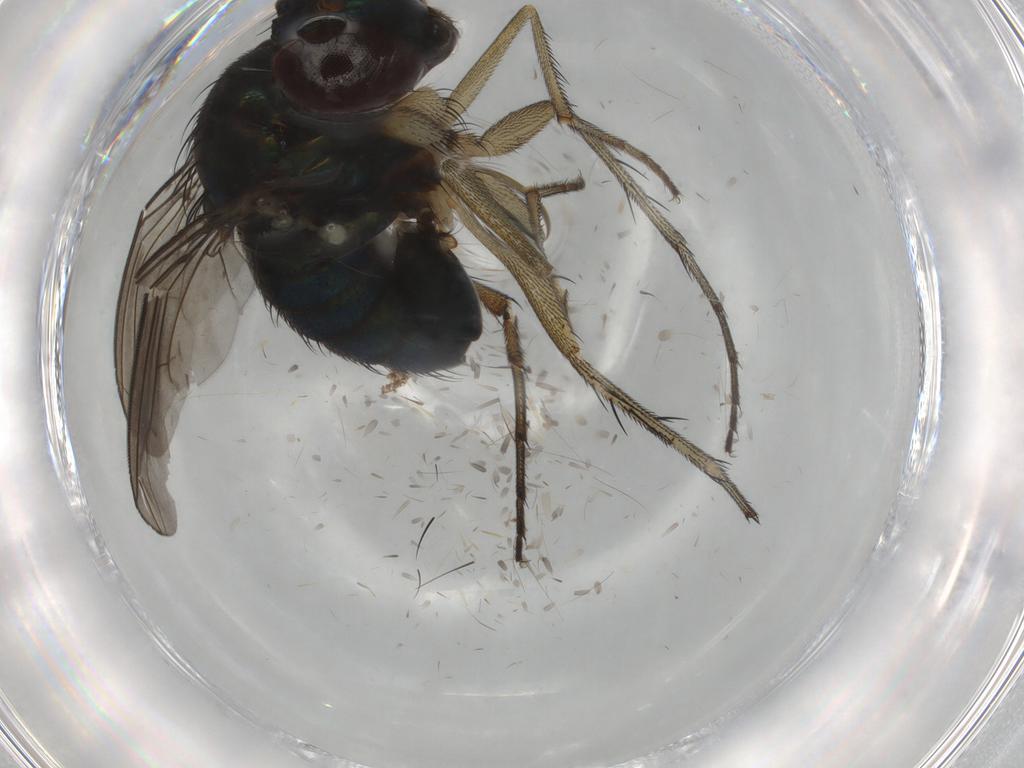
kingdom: Animalia
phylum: Arthropoda
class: Insecta
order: Diptera
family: Dolichopodidae
